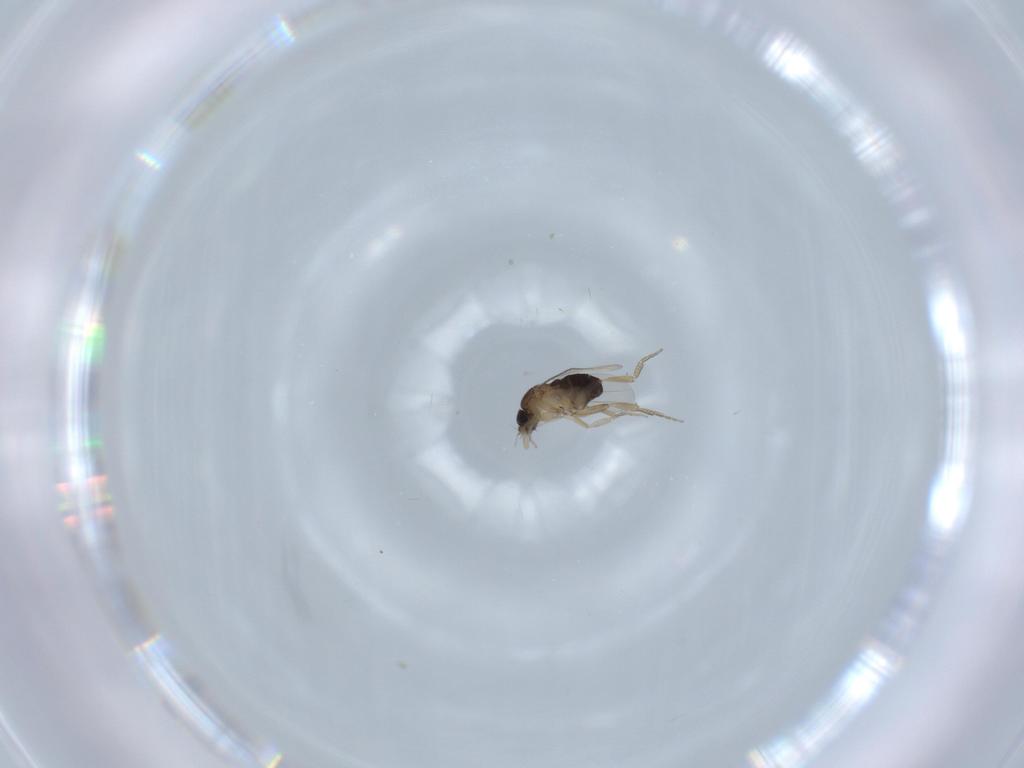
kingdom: Animalia
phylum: Arthropoda
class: Insecta
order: Diptera
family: Phoridae
